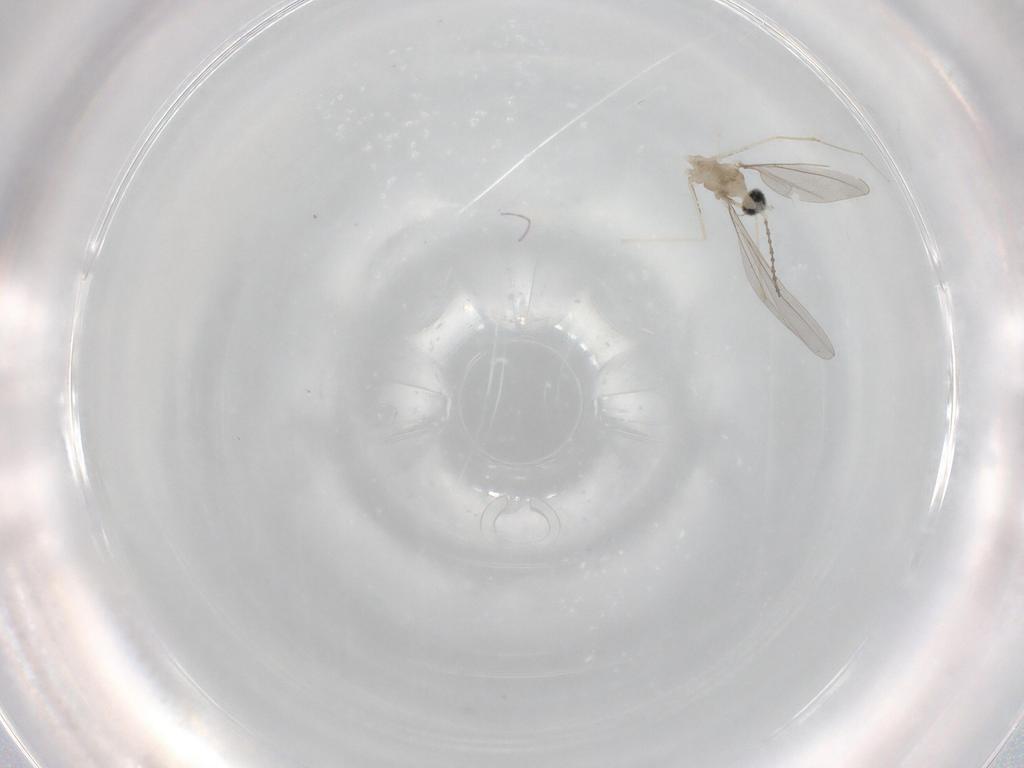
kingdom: Animalia
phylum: Arthropoda
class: Insecta
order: Diptera
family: Cecidomyiidae
